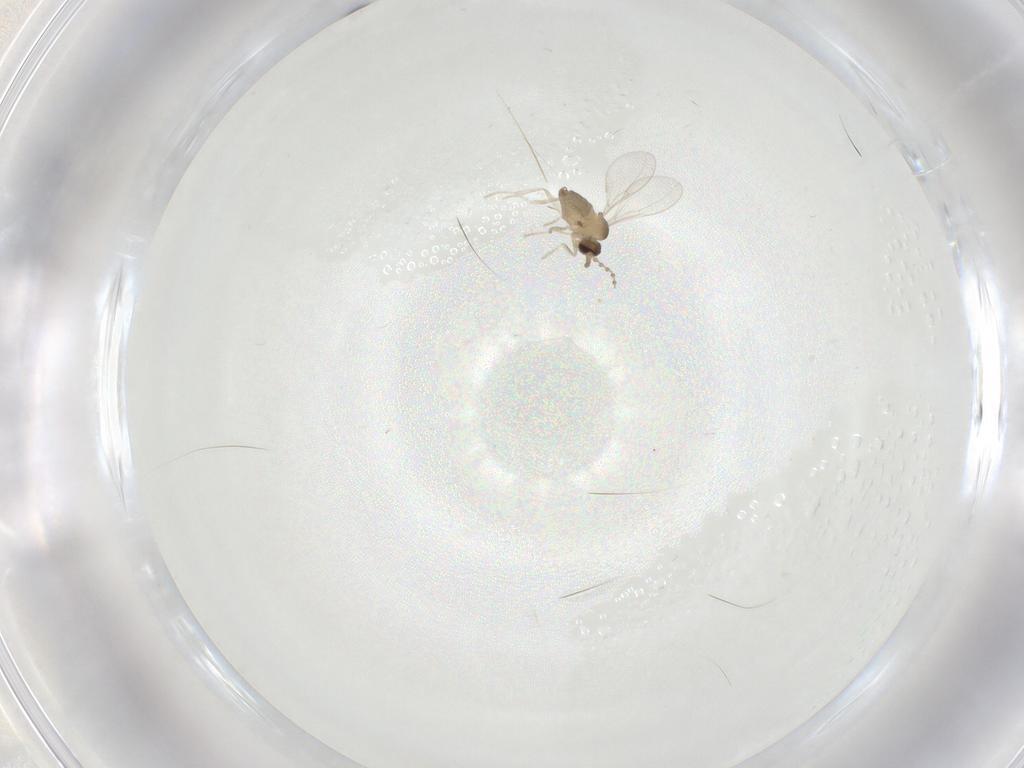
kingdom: Animalia
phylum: Arthropoda
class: Insecta
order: Diptera
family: Cecidomyiidae
